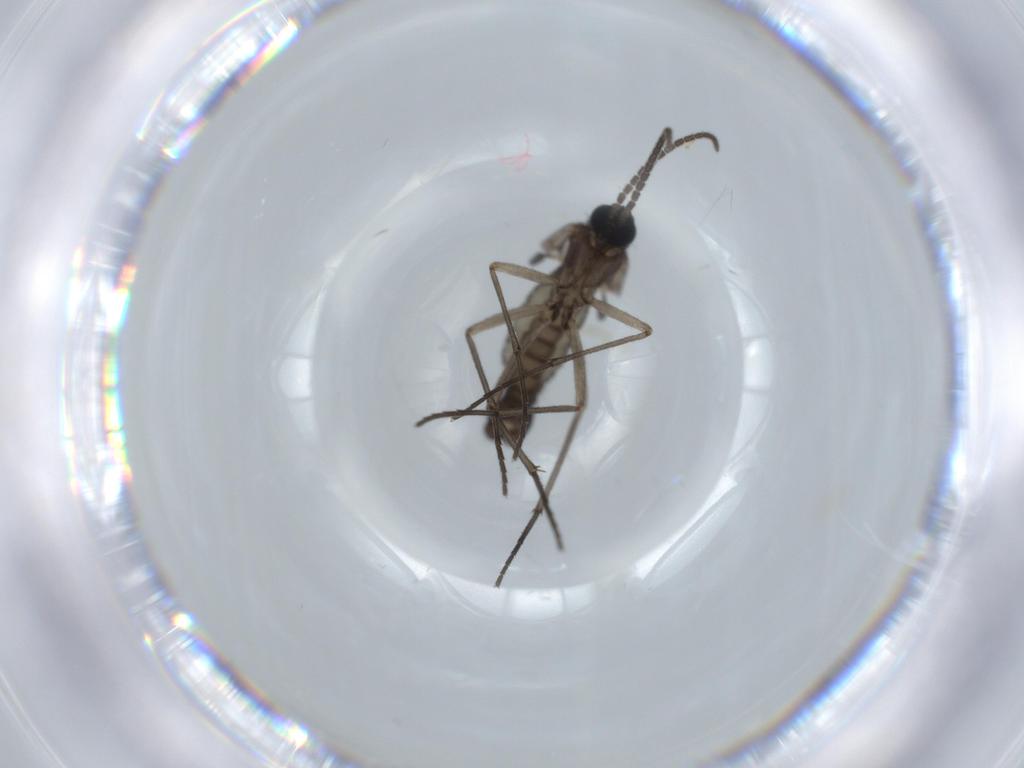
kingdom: Animalia
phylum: Arthropoda
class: Insecta
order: Diptera
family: Sciaridae
